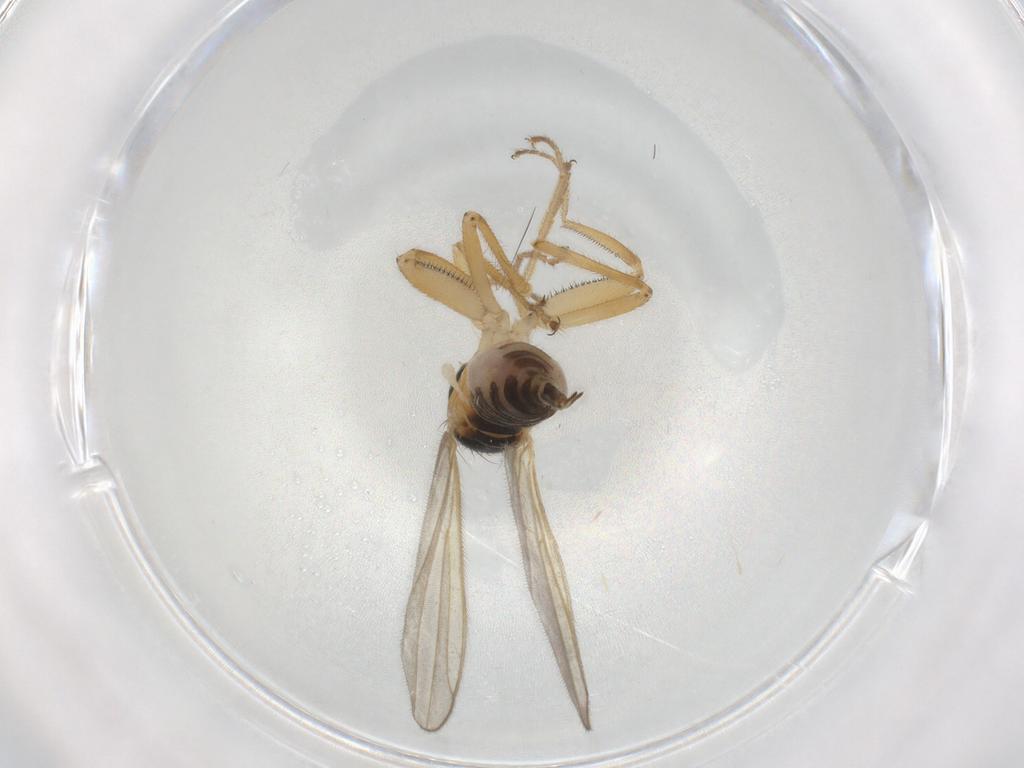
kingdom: Animalia
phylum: Arthropoda
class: Insecta
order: Diptera
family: Hybotidae
